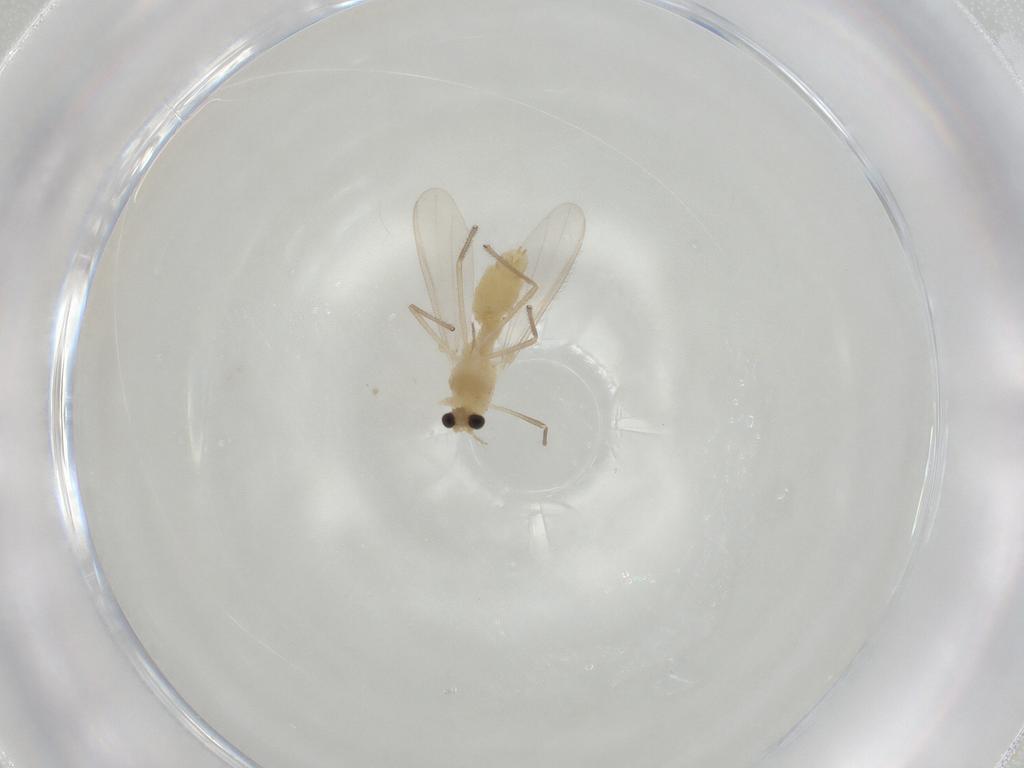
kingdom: Animalia
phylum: Arthropoda
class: Insecta
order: Diptera
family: Chironomidae
